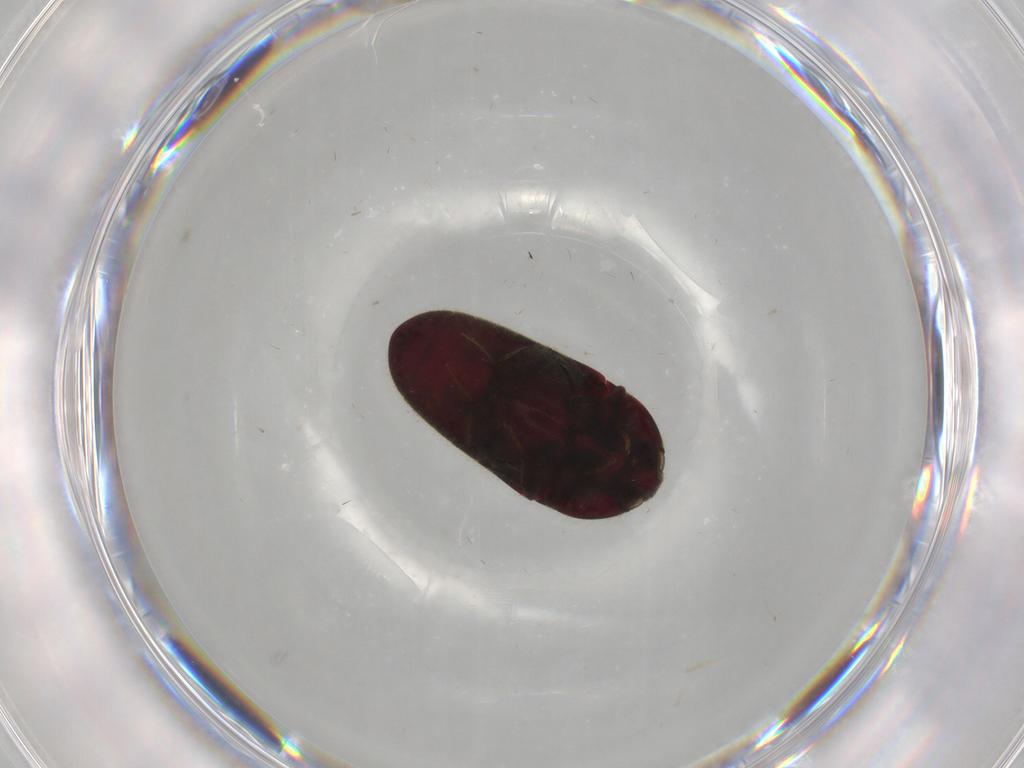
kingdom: Animalia
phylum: Arthropoda
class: Insecta
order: Coleoptera
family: Throscidae
